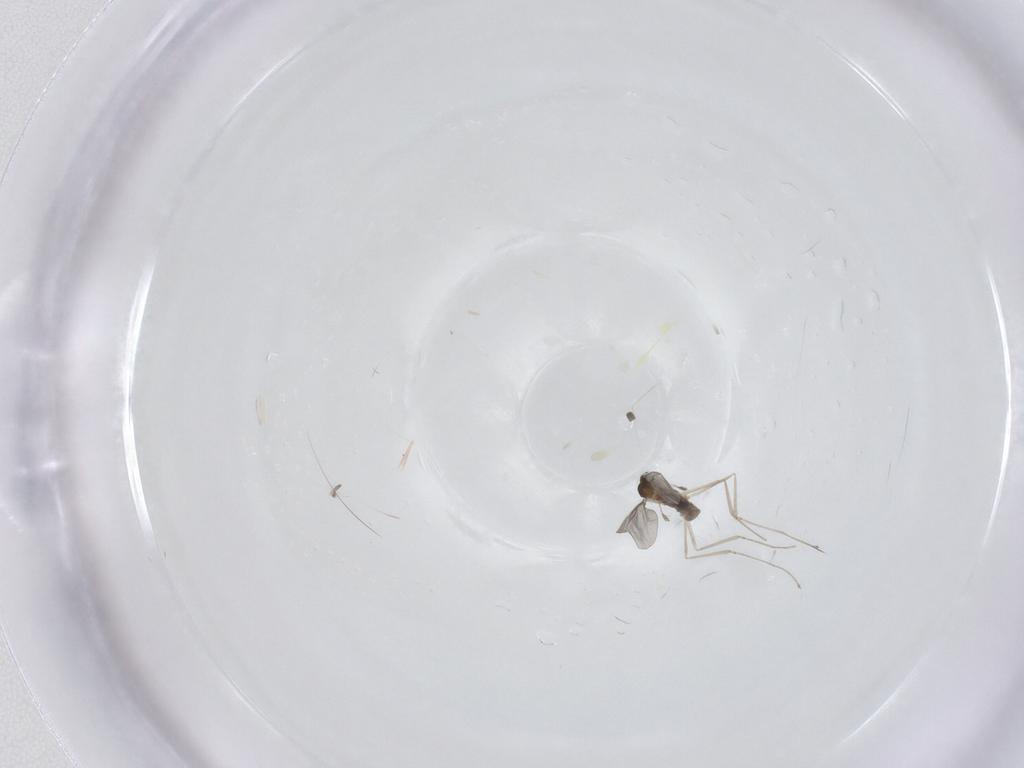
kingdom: Animalia
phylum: Arthropoda
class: Insecta
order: Diptera
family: Cecidomyiidae
